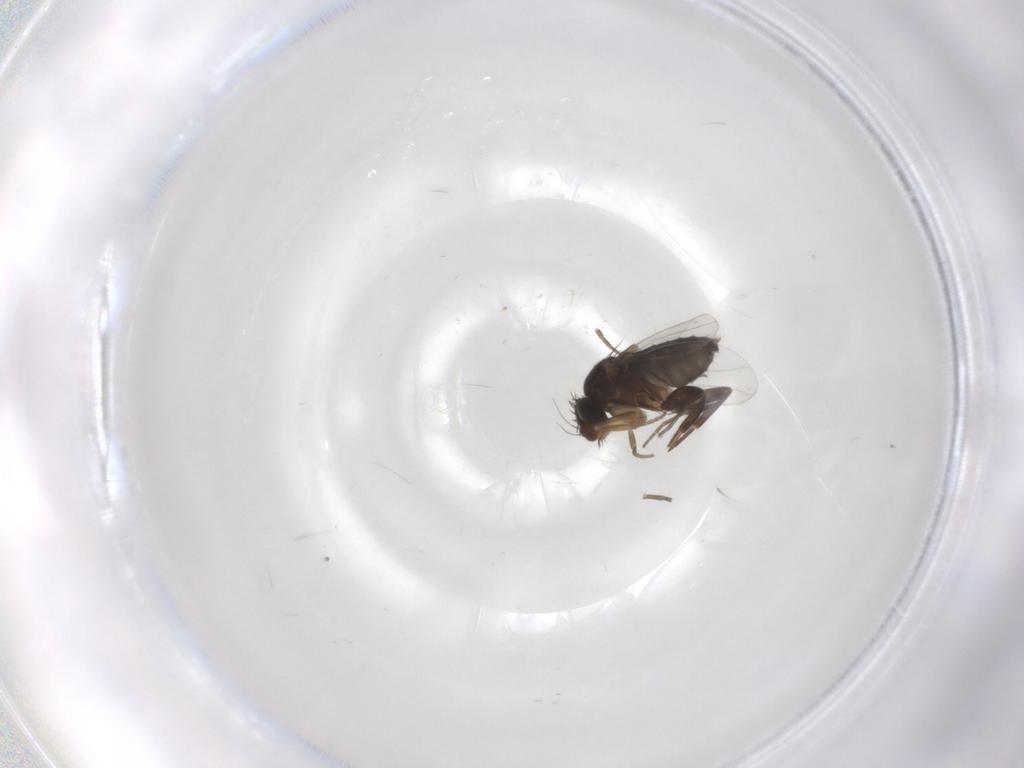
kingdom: Animalia
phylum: Arthropoda
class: Insecta
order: Diptera
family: Phoridae
